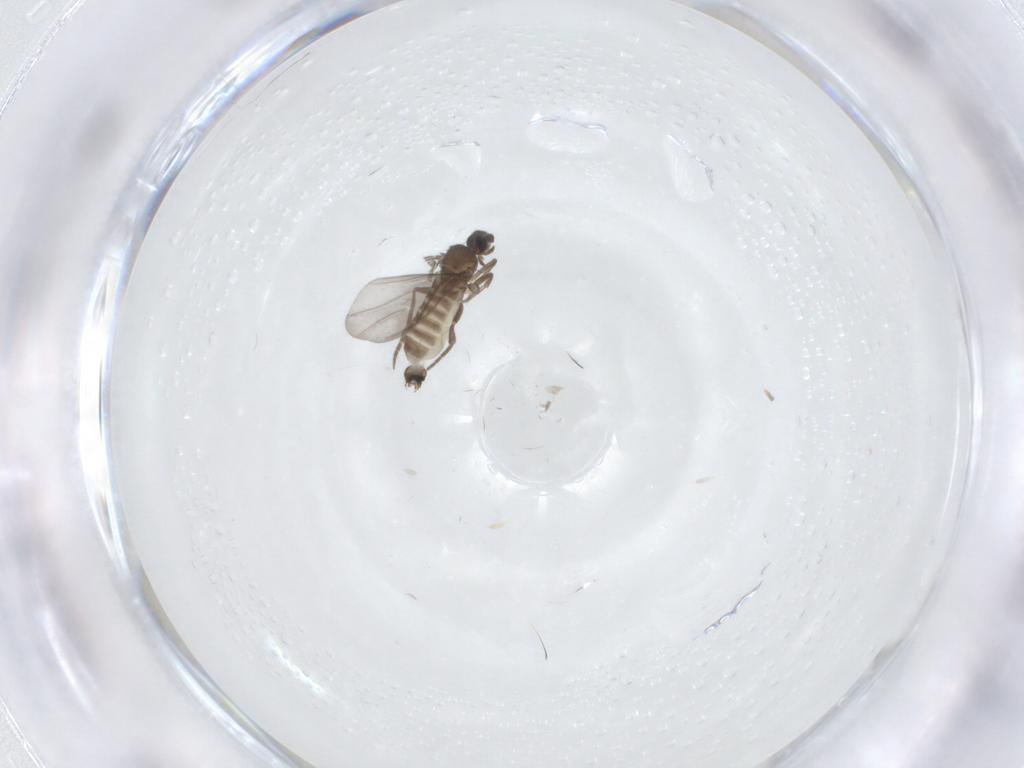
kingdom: Animalia
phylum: Arthropoda
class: Insecta
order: Diptera
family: Phoridae
